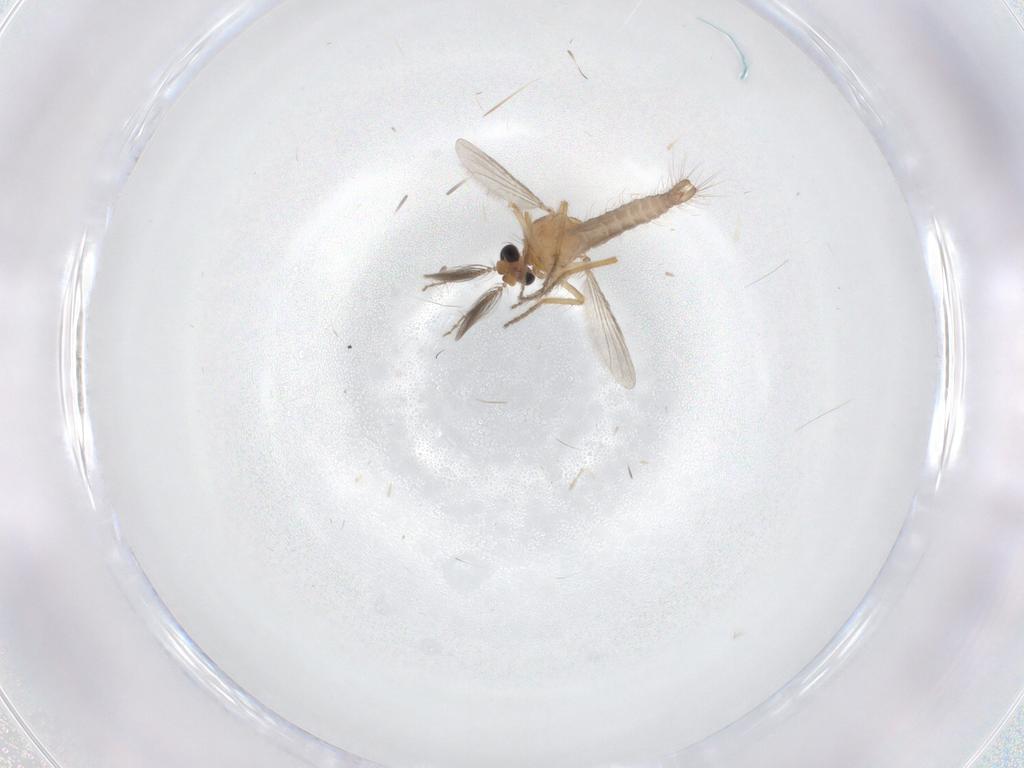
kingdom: Animalia
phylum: Arthropoda
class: Insecta
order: Diptera
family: Ceratopogonidae
